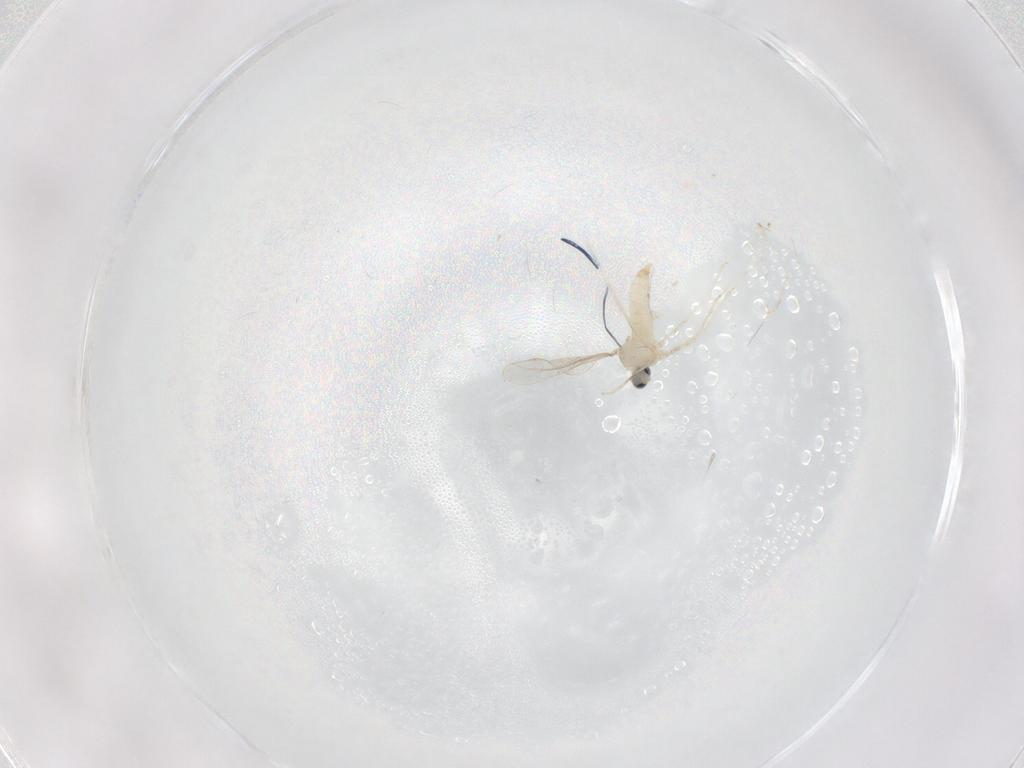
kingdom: Animalia
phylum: Arthropoda
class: Insecta
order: Diptera
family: Chironomidae
